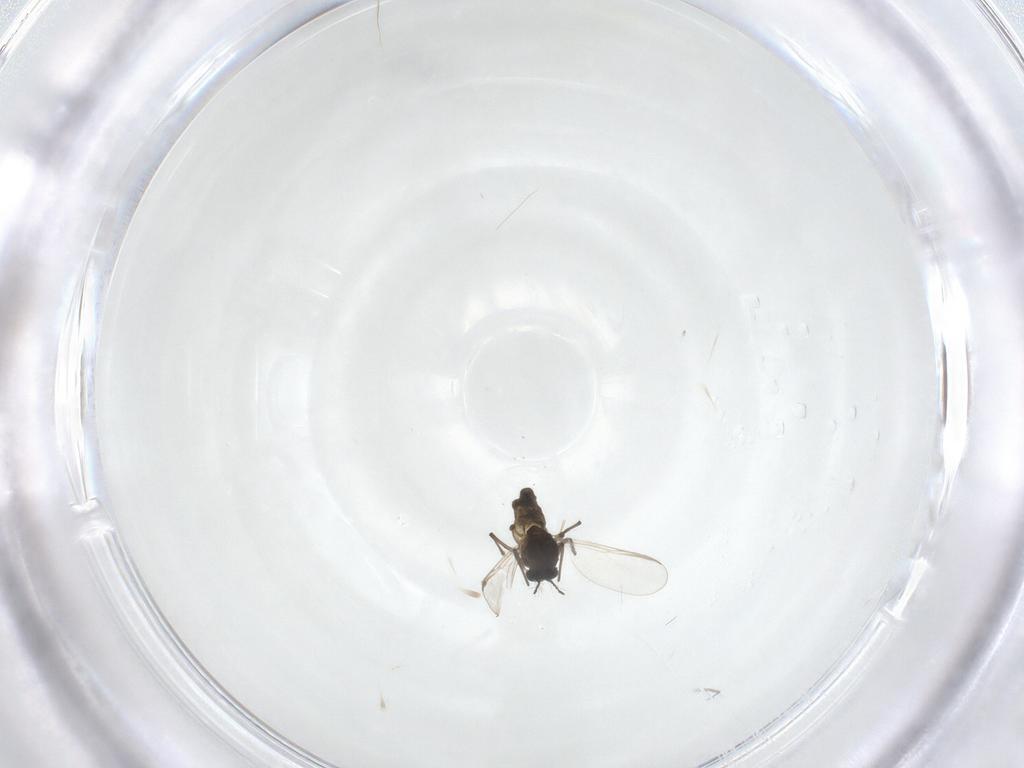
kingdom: Animalia
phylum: Arthropoda
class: Insecta
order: Diptera
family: Chironomidae
